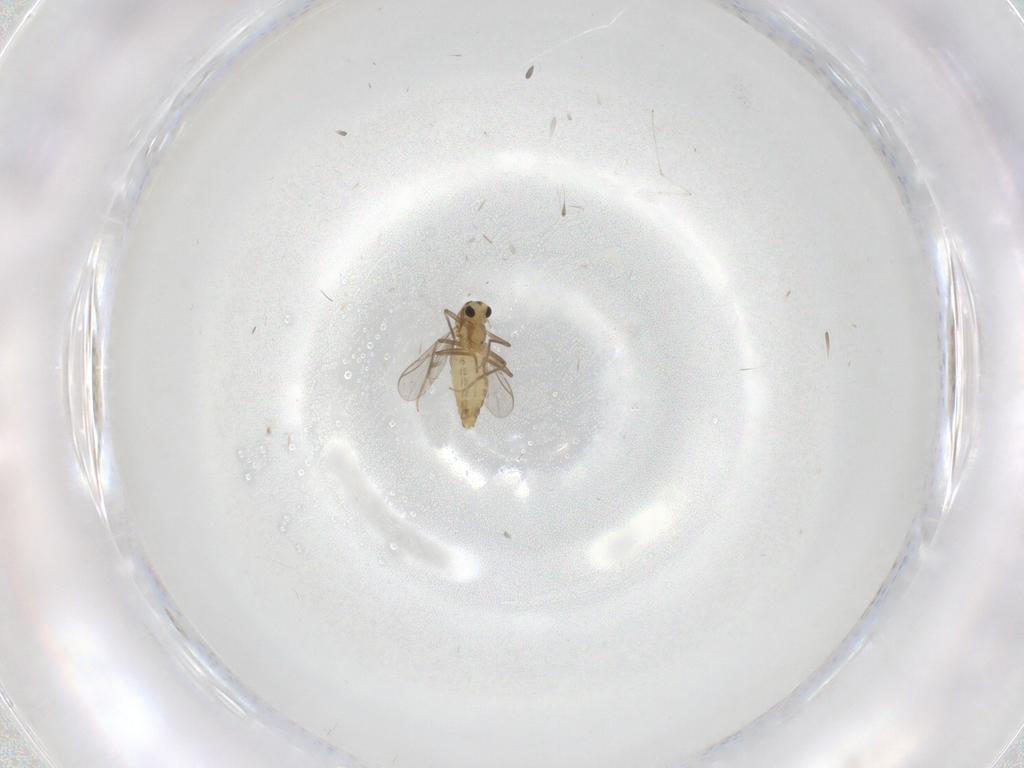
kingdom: Animalia
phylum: Arthropoda
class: Insecta
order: Diptera
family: Chironomidae
